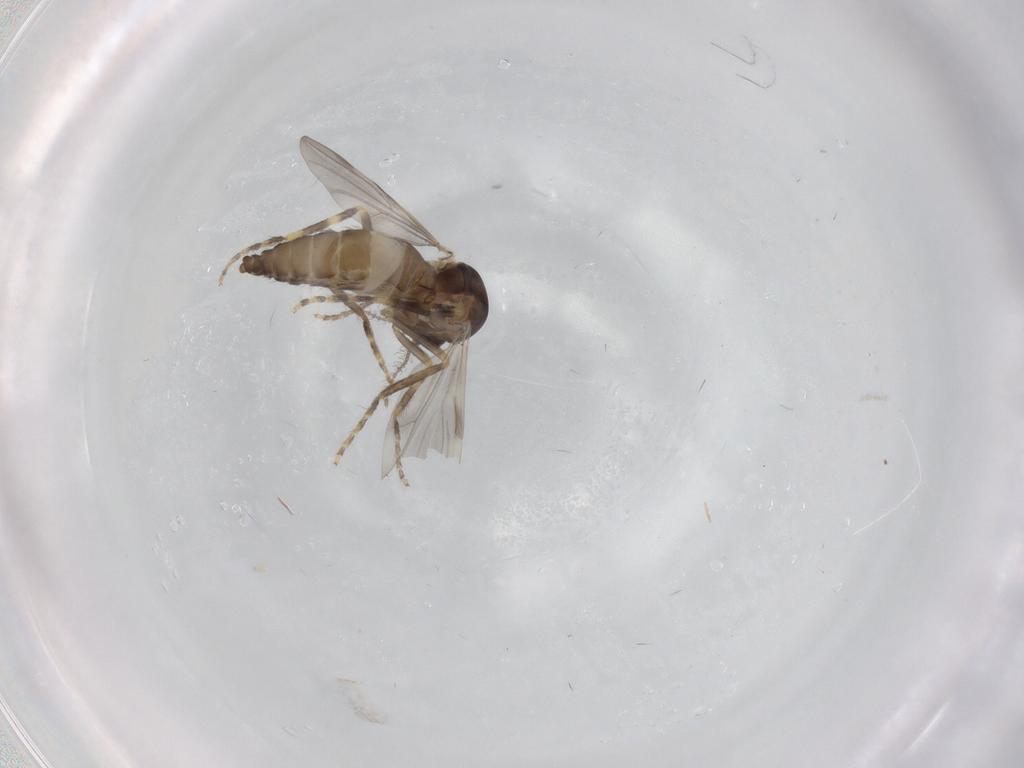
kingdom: Animalia
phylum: Arthropoda
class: Insecta
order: Diptera
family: Ceratopogonidae
